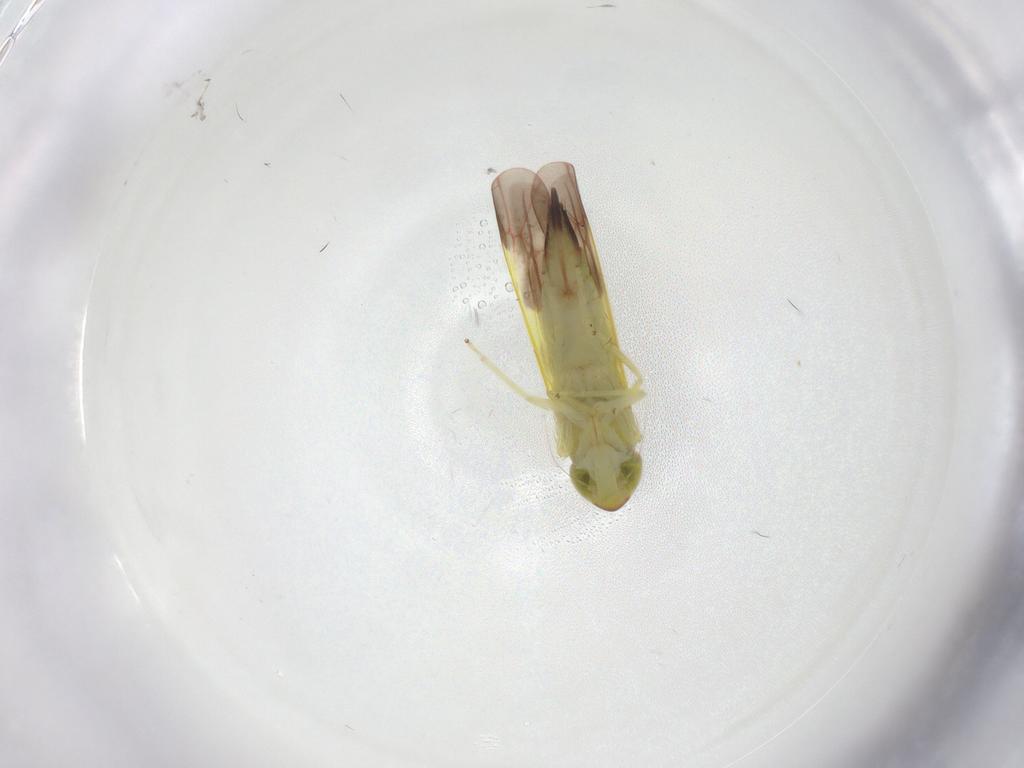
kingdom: Animalia
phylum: Arthropoda
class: Insecta
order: Hemiptera
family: Cicadellidae
